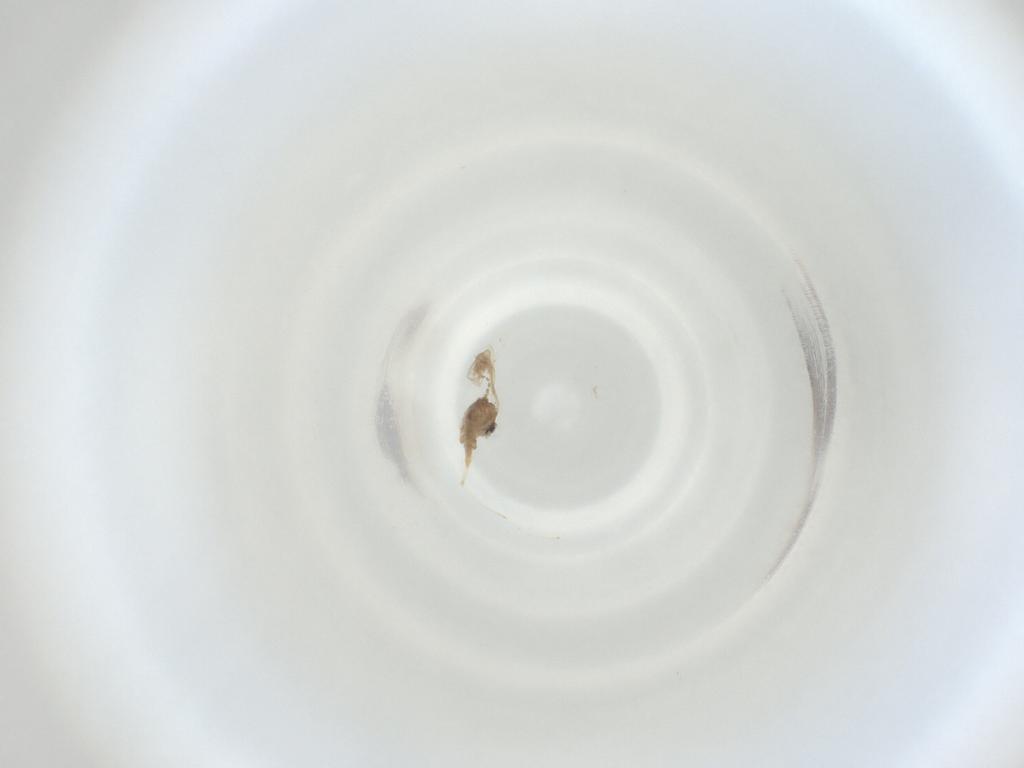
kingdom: Animalia
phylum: Arthropoda
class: Insecta
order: Diptera
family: Cecidomyiidae
